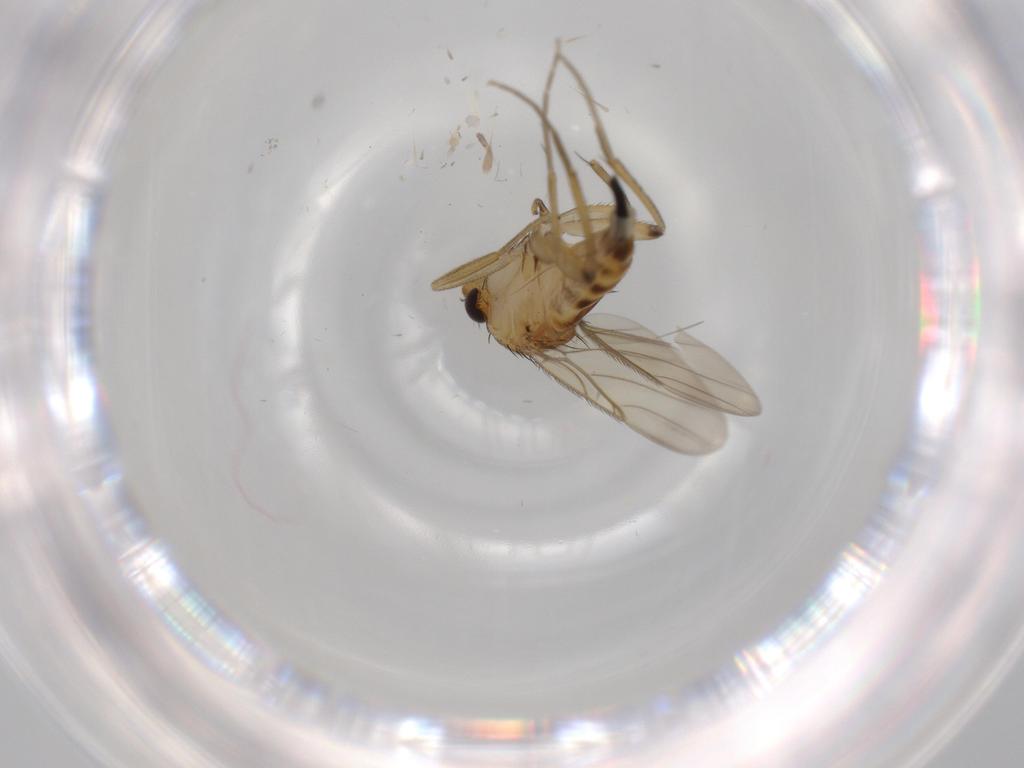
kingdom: Animalia
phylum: Arthropoda
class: Insecta
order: Diptera
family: Phoridae
